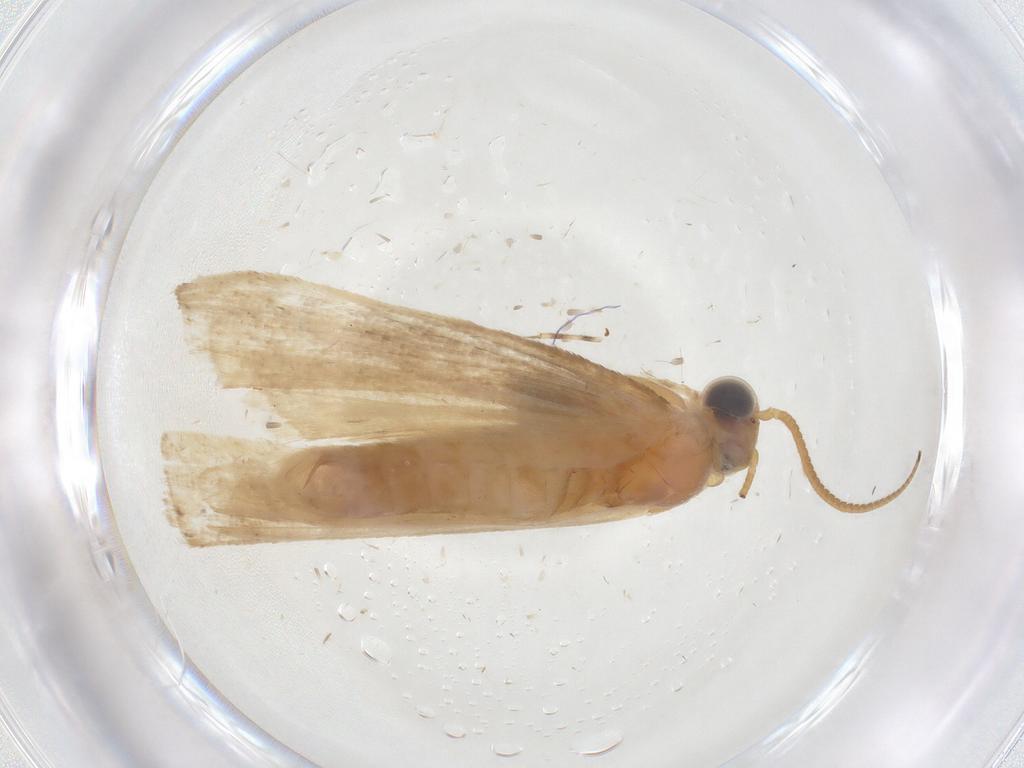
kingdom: Animalia
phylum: Arthropoda
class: Insecta
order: Lepidoptera
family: Pyralidae
